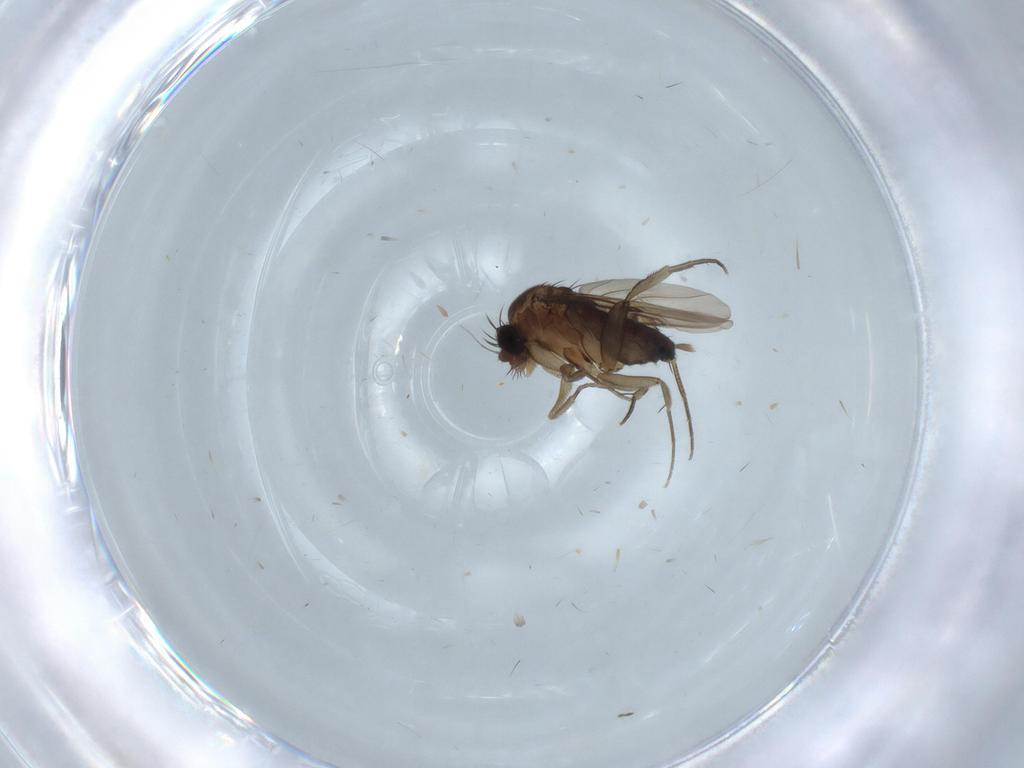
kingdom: Animalia
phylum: Arthropoda
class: Insecta
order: Diptera
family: Phoridae
